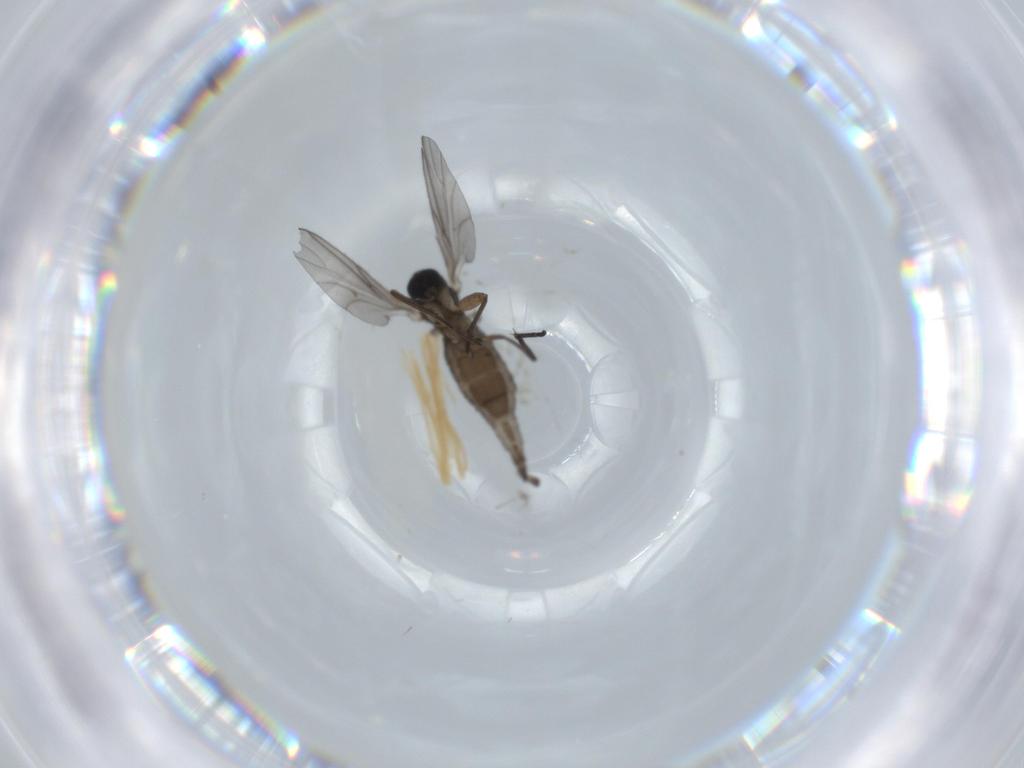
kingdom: Animalia
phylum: Arthropoda
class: Insecta
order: Diptera
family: Sciaridae
